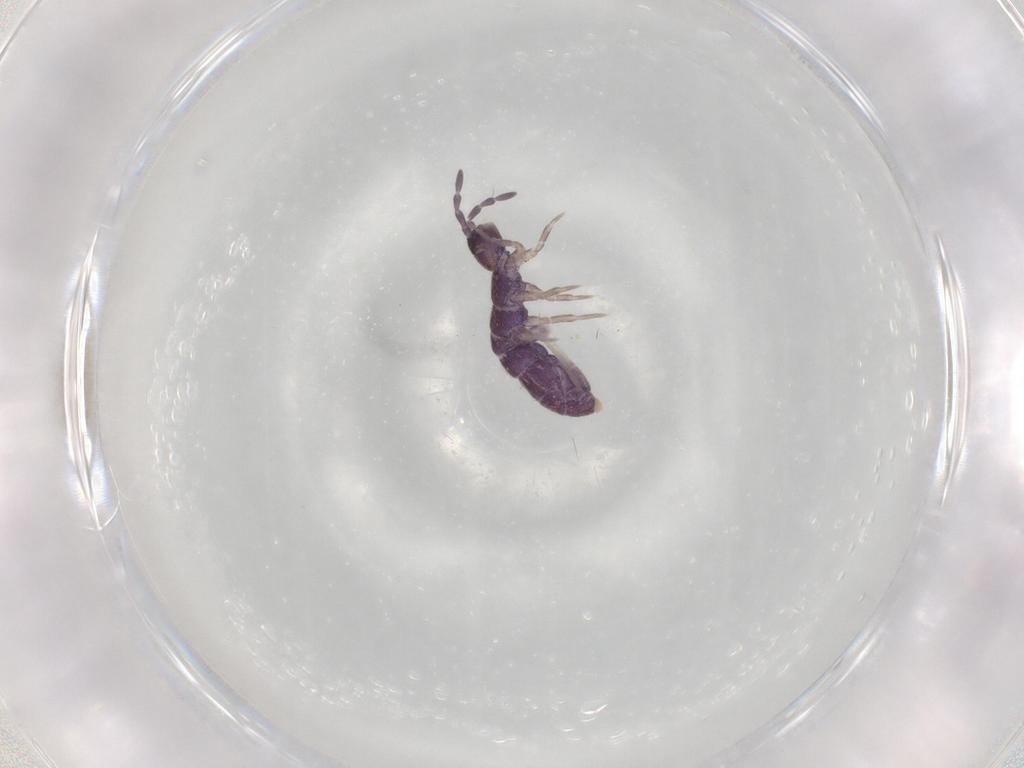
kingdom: Animalia
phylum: Arthropoda
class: Collembola
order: Entomobryomorpha
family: Isotomidae
